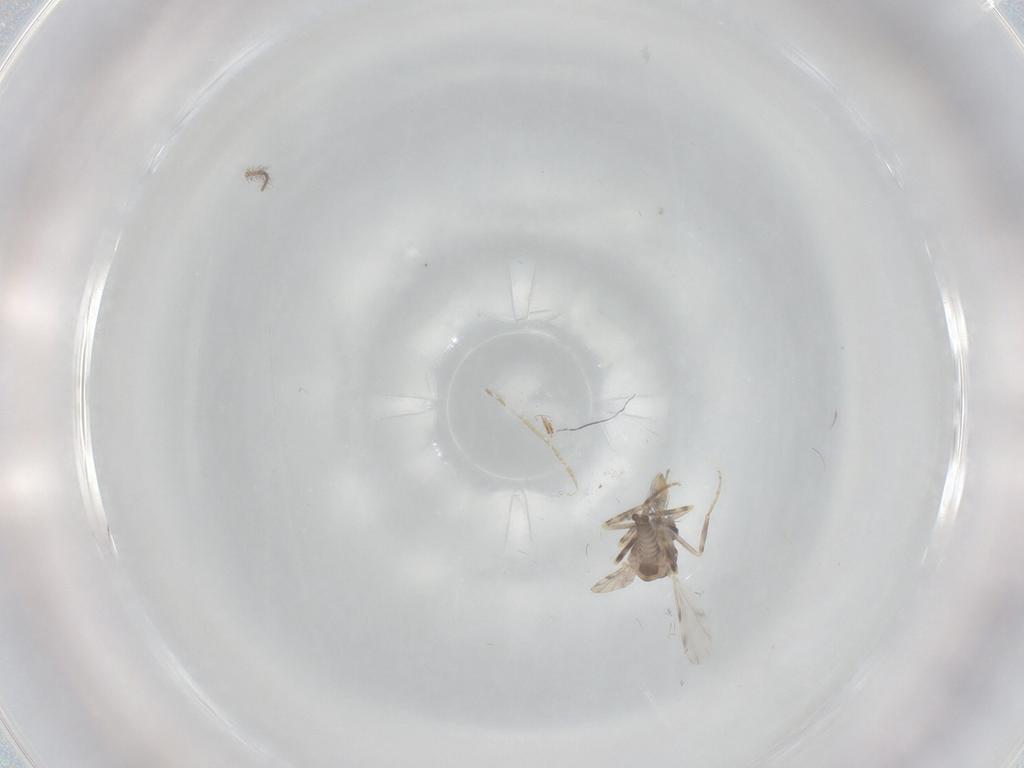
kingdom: Animalia
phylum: Arthropoda
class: Insecta
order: Diptera
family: Ceratopogonidae
